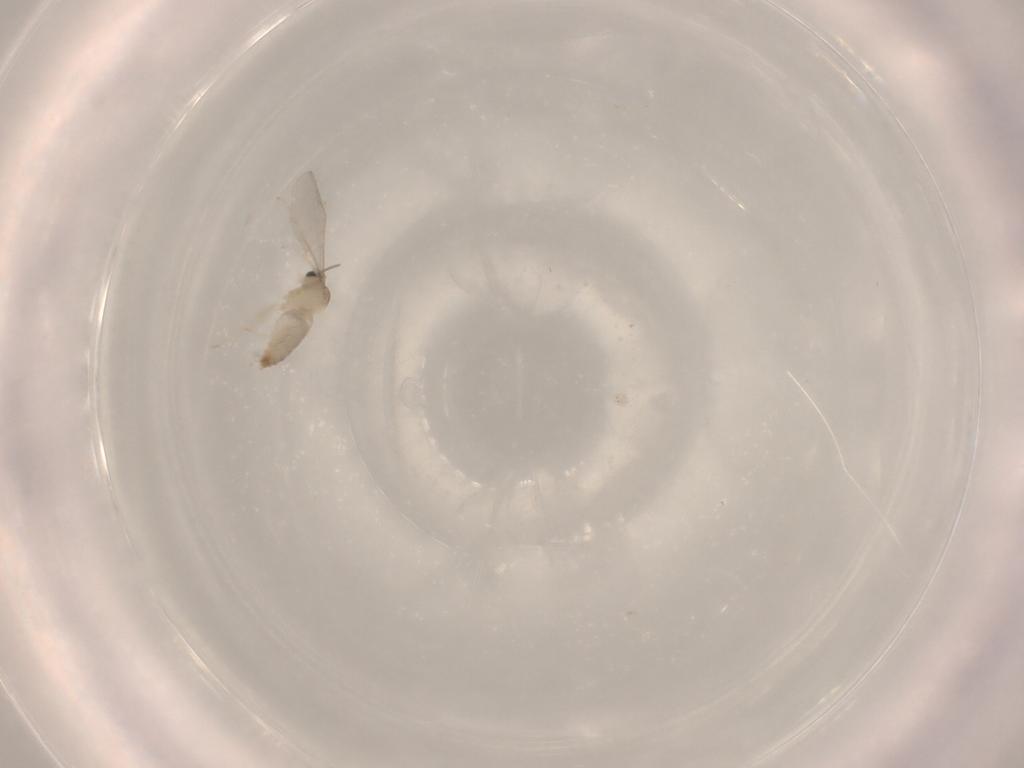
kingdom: Animalia
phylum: Arthropoda
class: Insecta
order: Diptera
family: Cecidomyiidae
